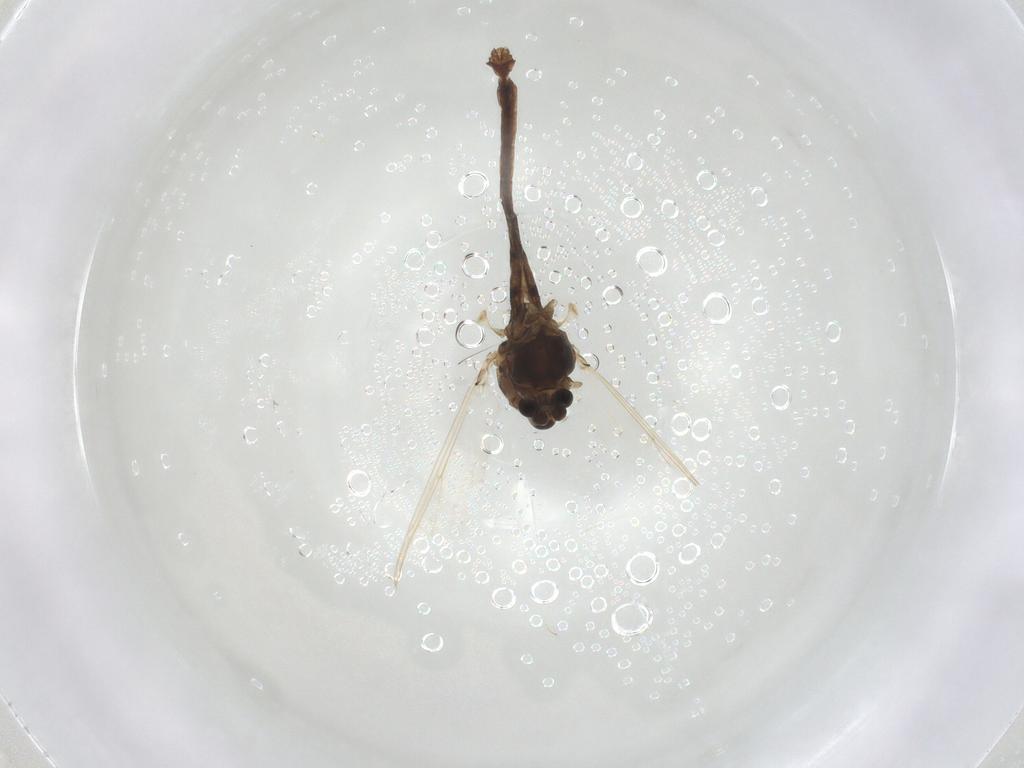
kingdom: Animalia
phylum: Arthropoda
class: Insecta
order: Diptera
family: Chironomidae
